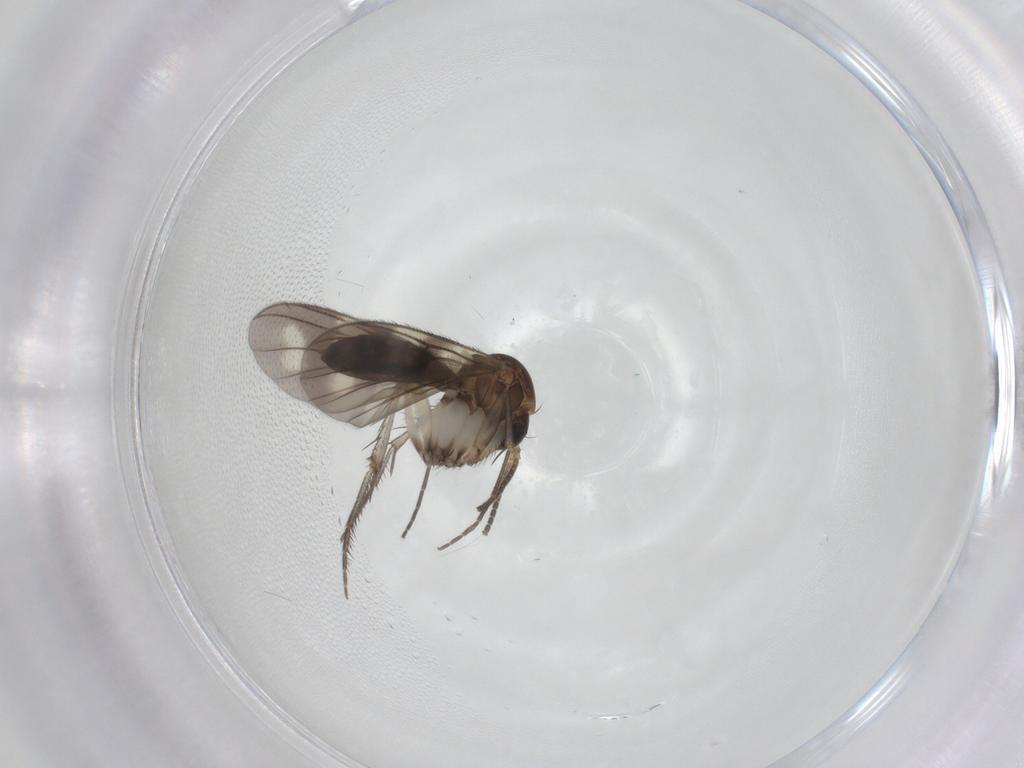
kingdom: Animalia
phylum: Arthropoda
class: Insecta
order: Diptera
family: Mycetophilidae
